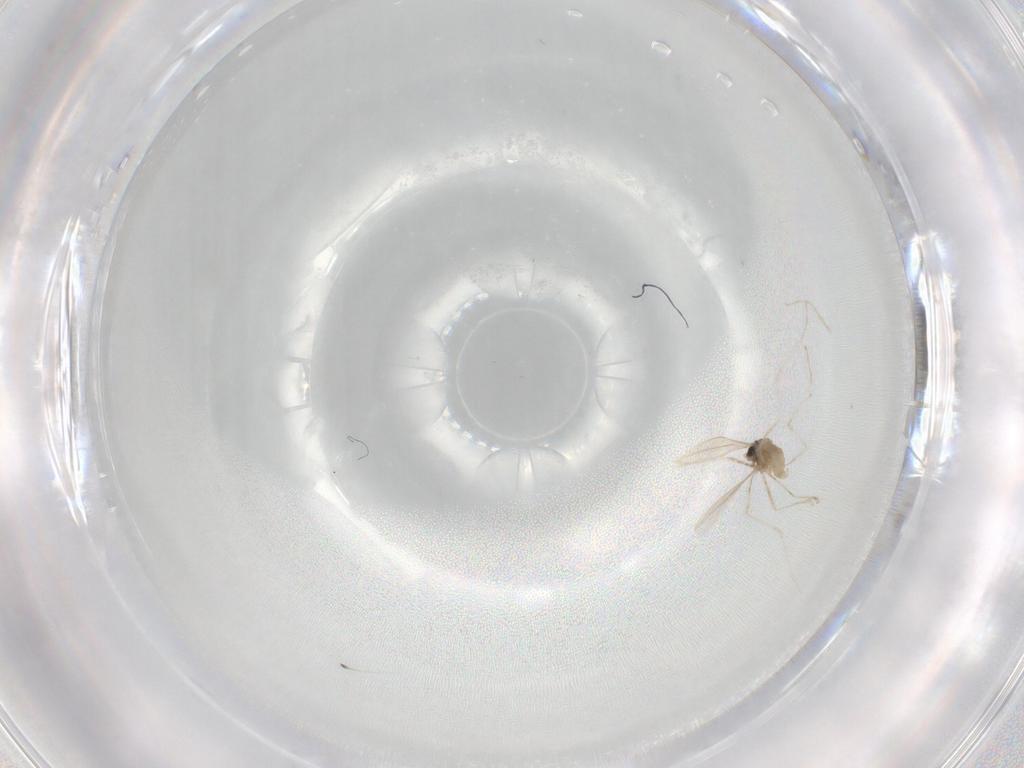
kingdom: Animalia
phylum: Arthropoda
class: Insecta
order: Diptera
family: Cecidomyiidae
